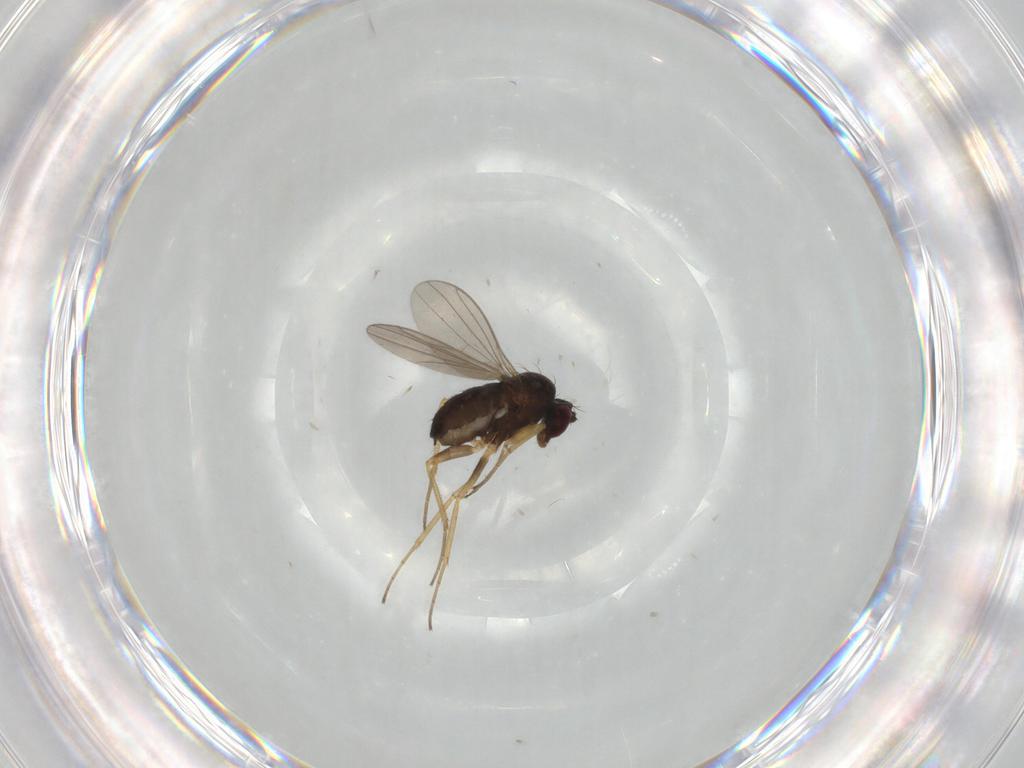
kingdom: Animalia
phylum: Arthropoda
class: Insecta
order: Diptera
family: Dolichopodidae
